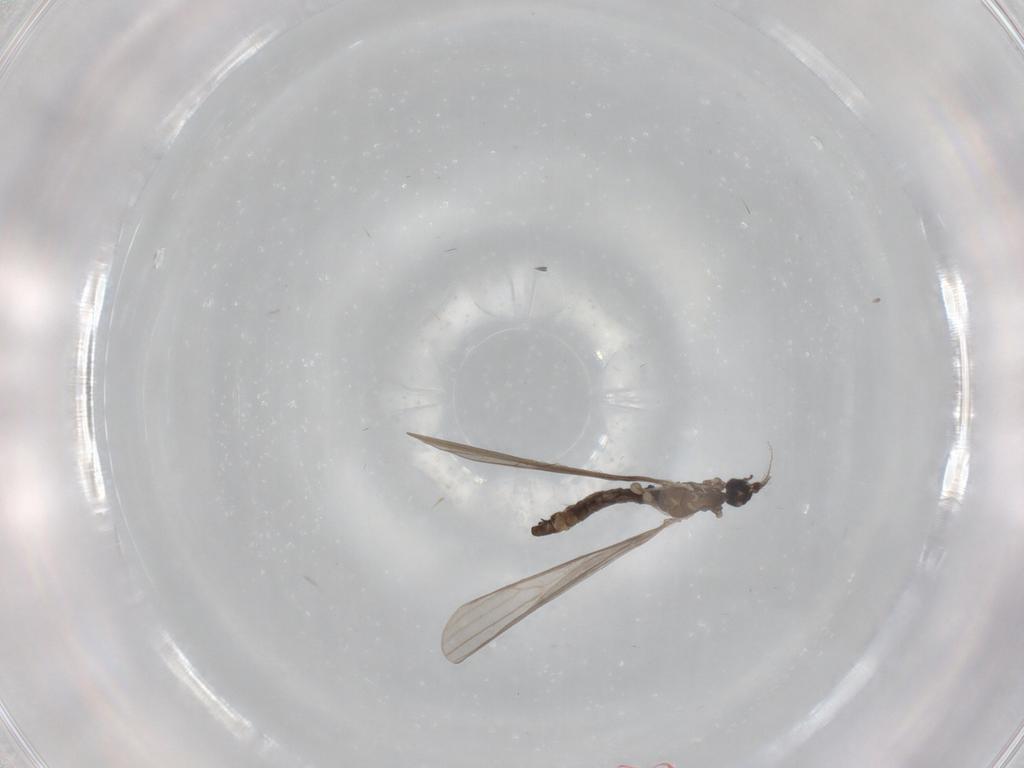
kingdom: Animalia
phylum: Arthropoda
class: Insecta
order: Diptera
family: Limoniidae
